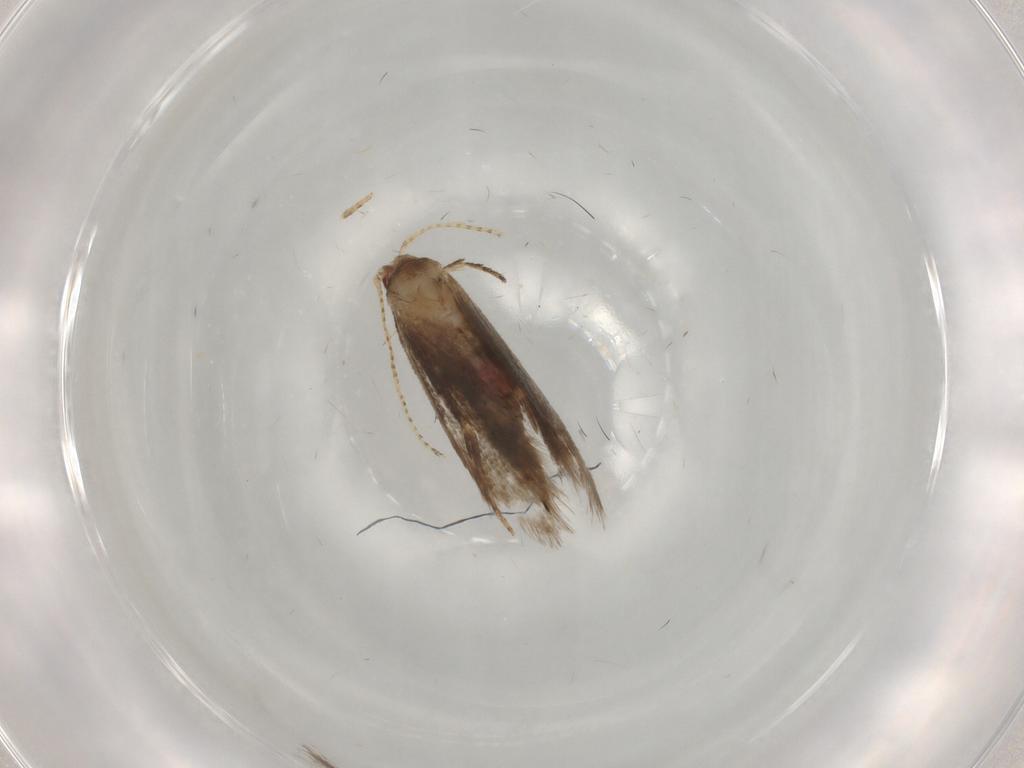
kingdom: Animalia
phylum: Arthropoda
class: Insecta
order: Lepidoptera
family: Gelechiidae
